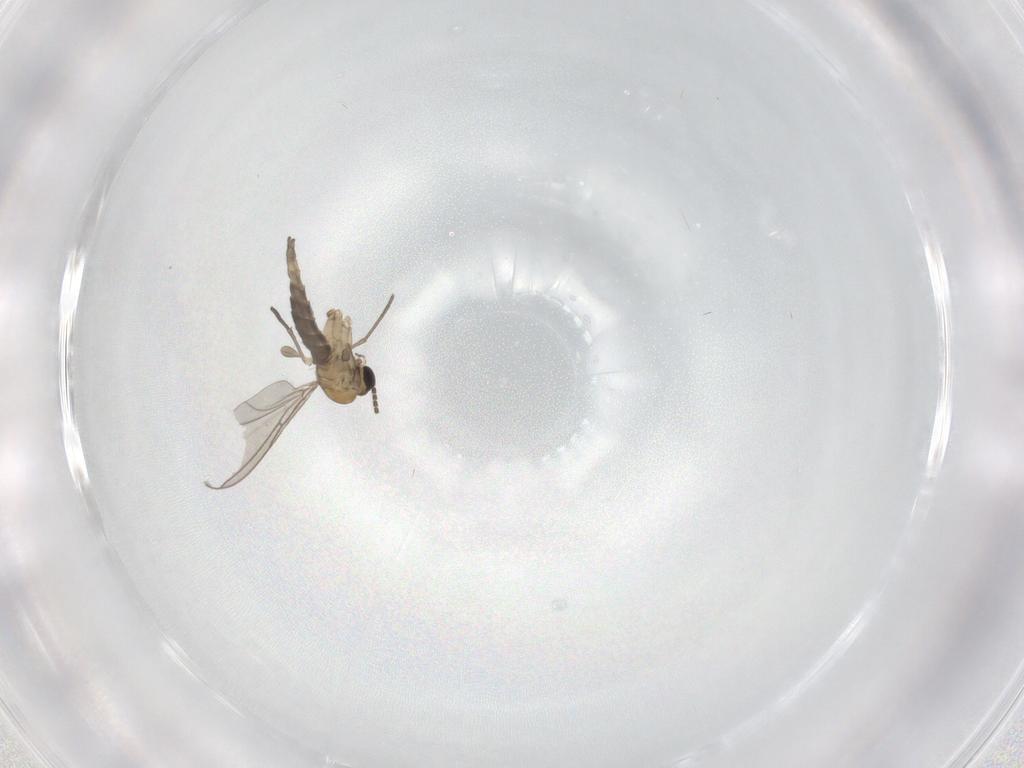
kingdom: Animalia
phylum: Arthropoda
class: Insecta
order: Diptera
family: Sciaridae
